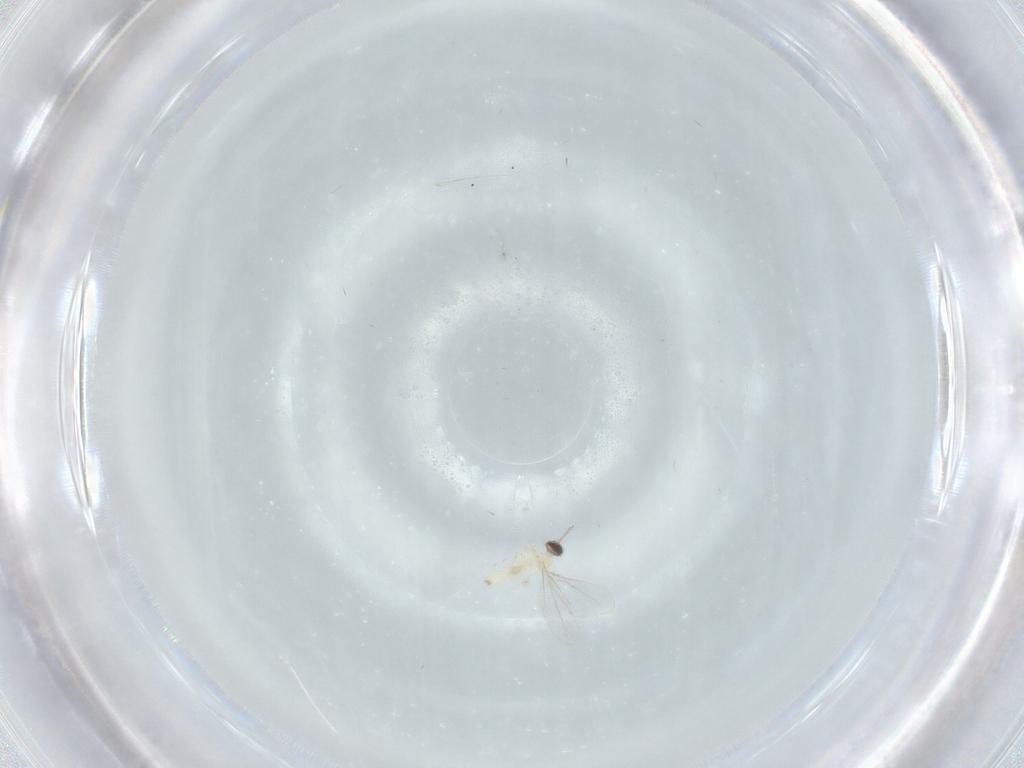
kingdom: Animalia
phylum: Arthropoda
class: Insecta
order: Diptera
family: Cecidomyiidae
